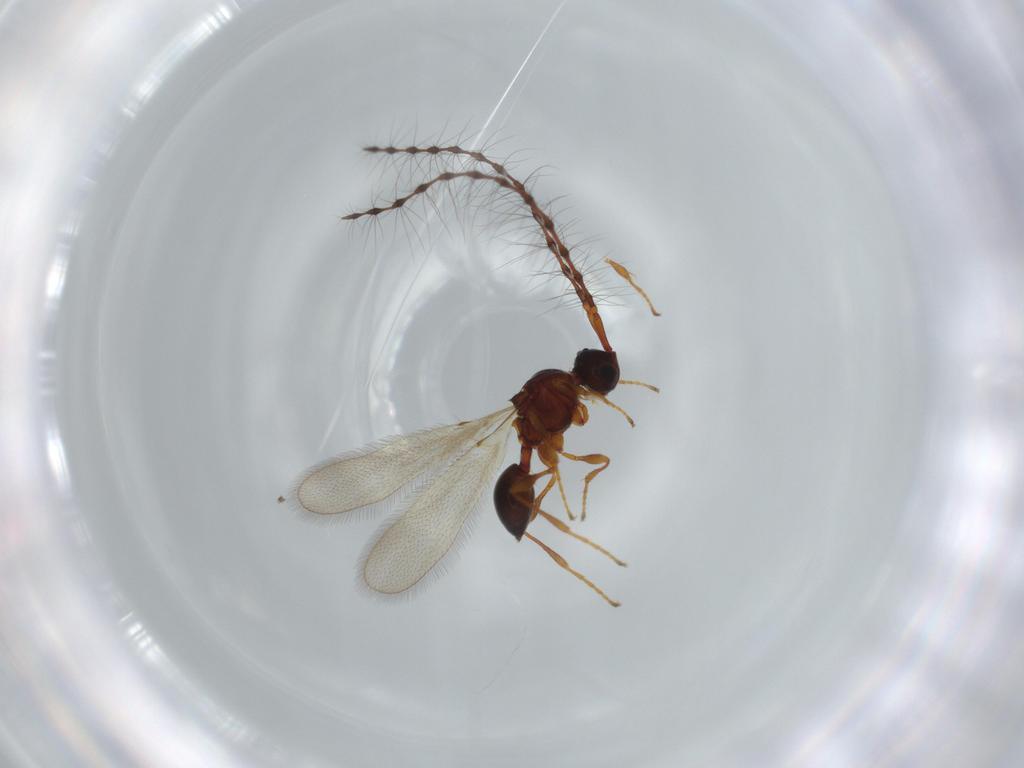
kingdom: Animalia
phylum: Arthropoda
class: Insecta
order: Hymenoptera
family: Diapriidae
